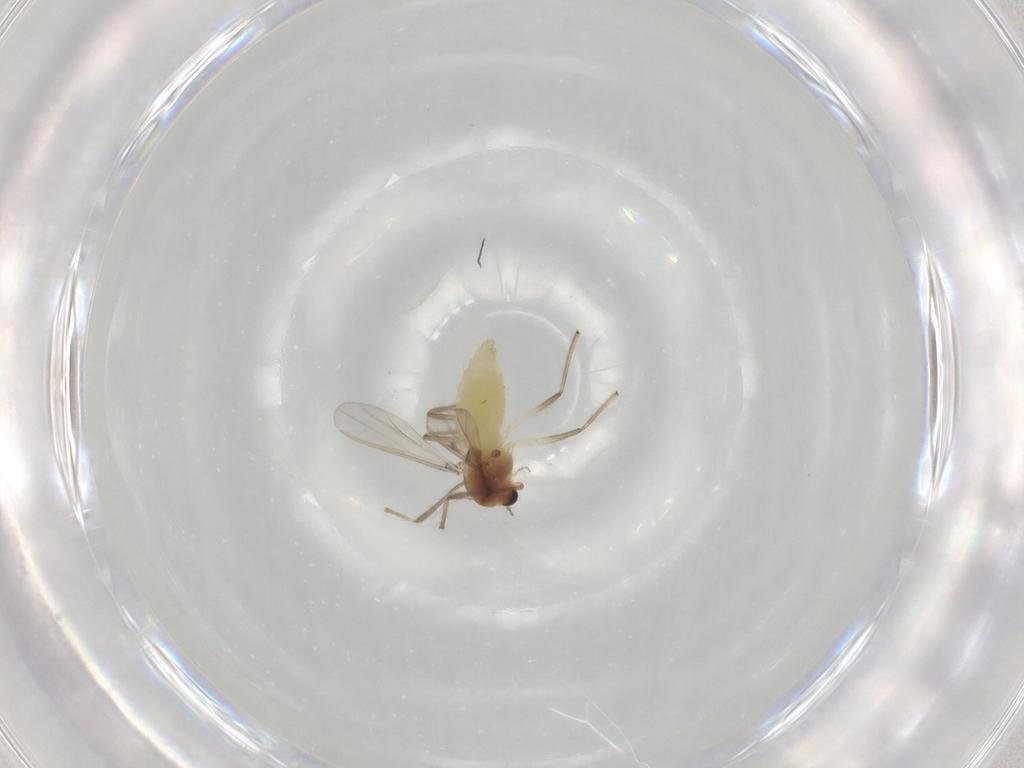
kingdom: Animalia
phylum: Arthropoda
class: Insecta
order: Diptera
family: Chironomidae
